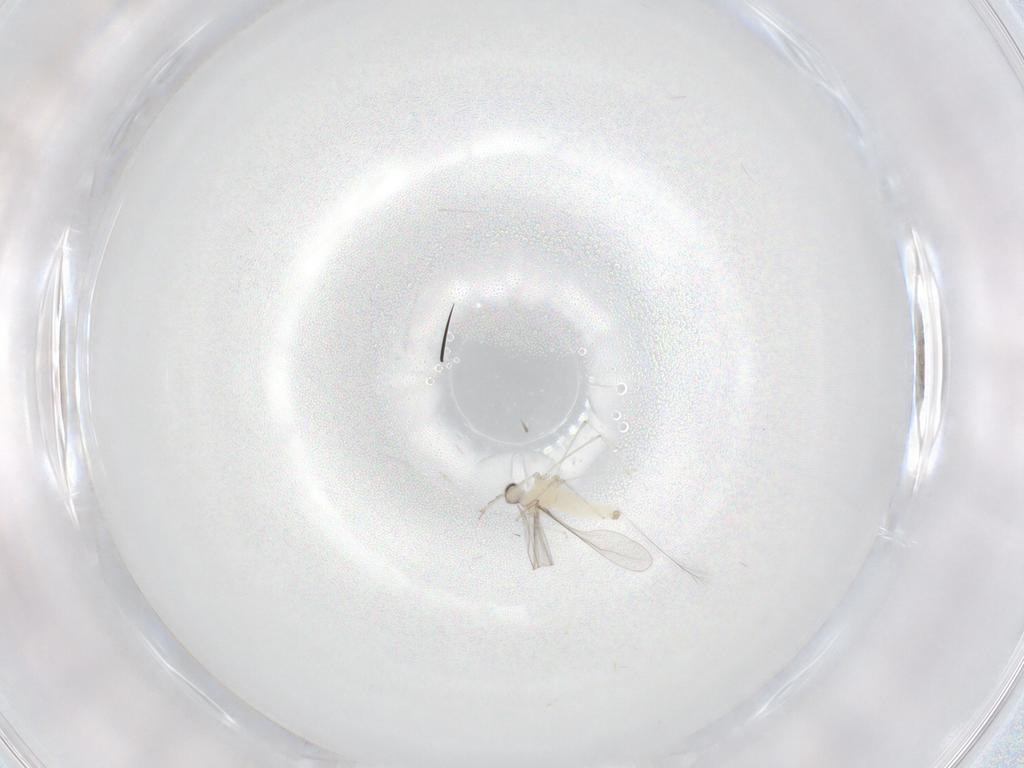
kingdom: Animalia
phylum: Arthropoda
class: Insecta
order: Diptera
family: Cecidomyiidae
